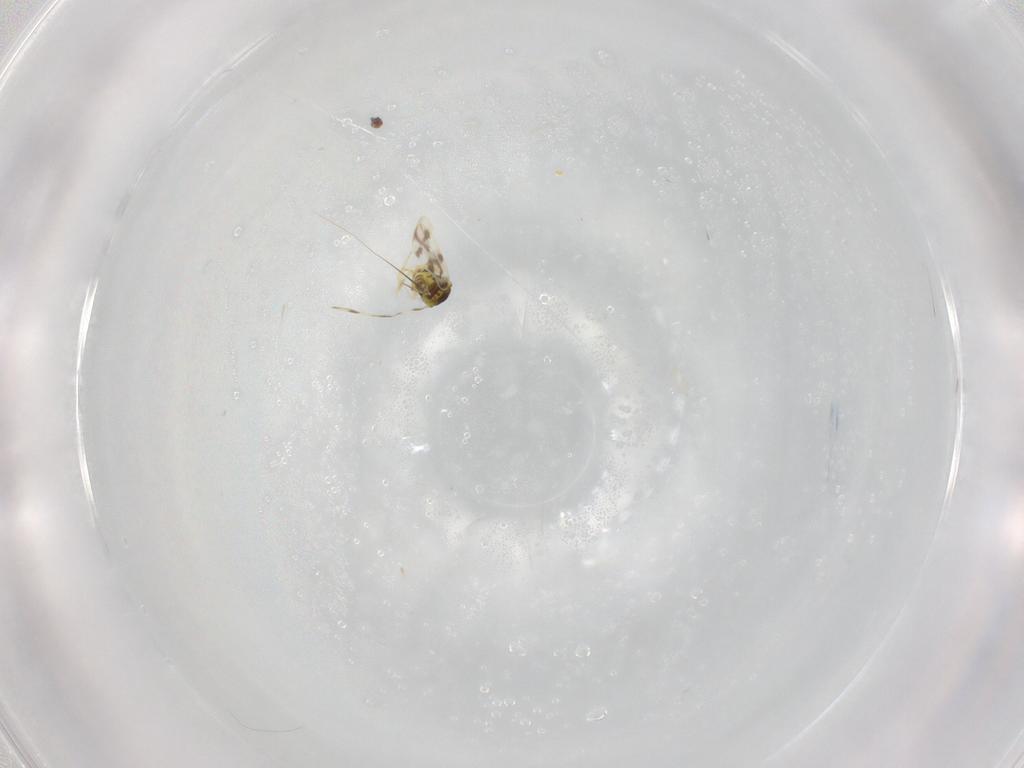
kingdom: Animalia
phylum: Arthropoda
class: Insecta
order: Hemiptera
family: Aleyrodidae
